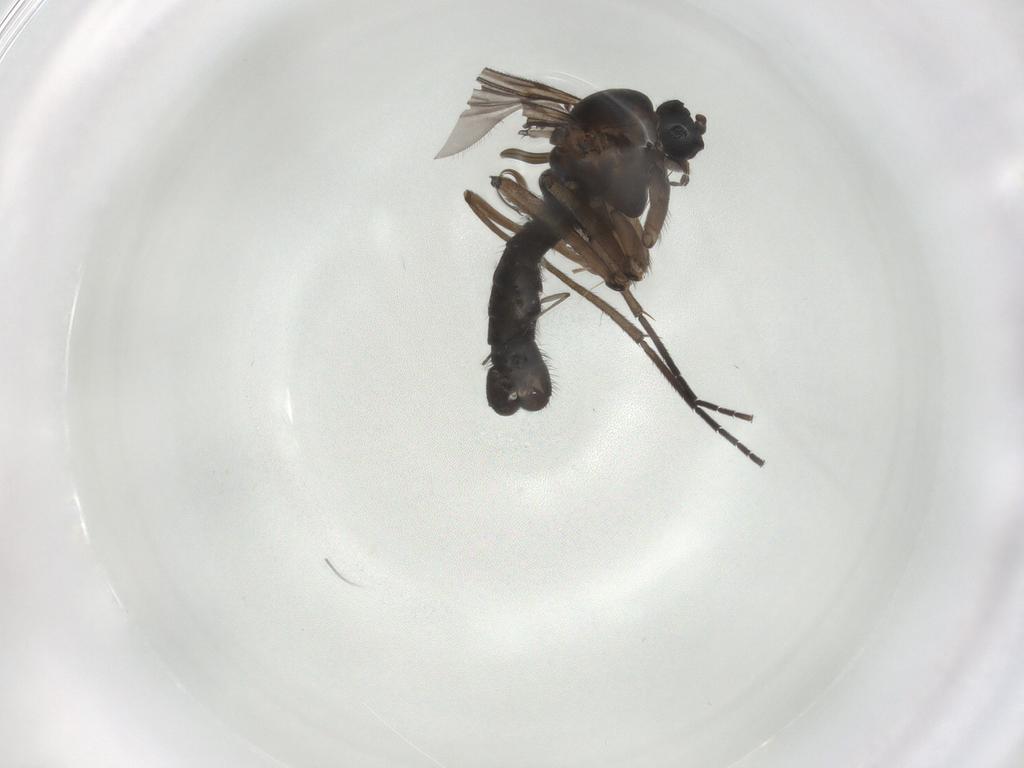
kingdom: Animalia
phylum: Arthropoda
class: Insecta
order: Diptera
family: Sciaridae
